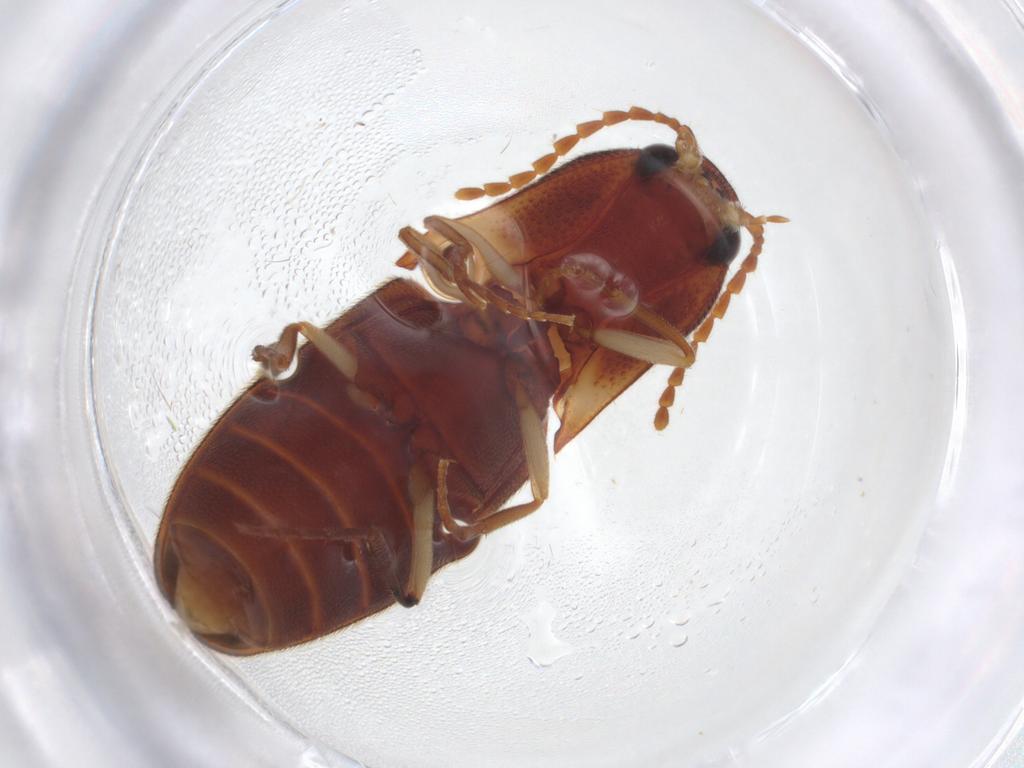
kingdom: Animalia
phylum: Arthropoda
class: Insecta
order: Coleoptera
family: Elateridae
